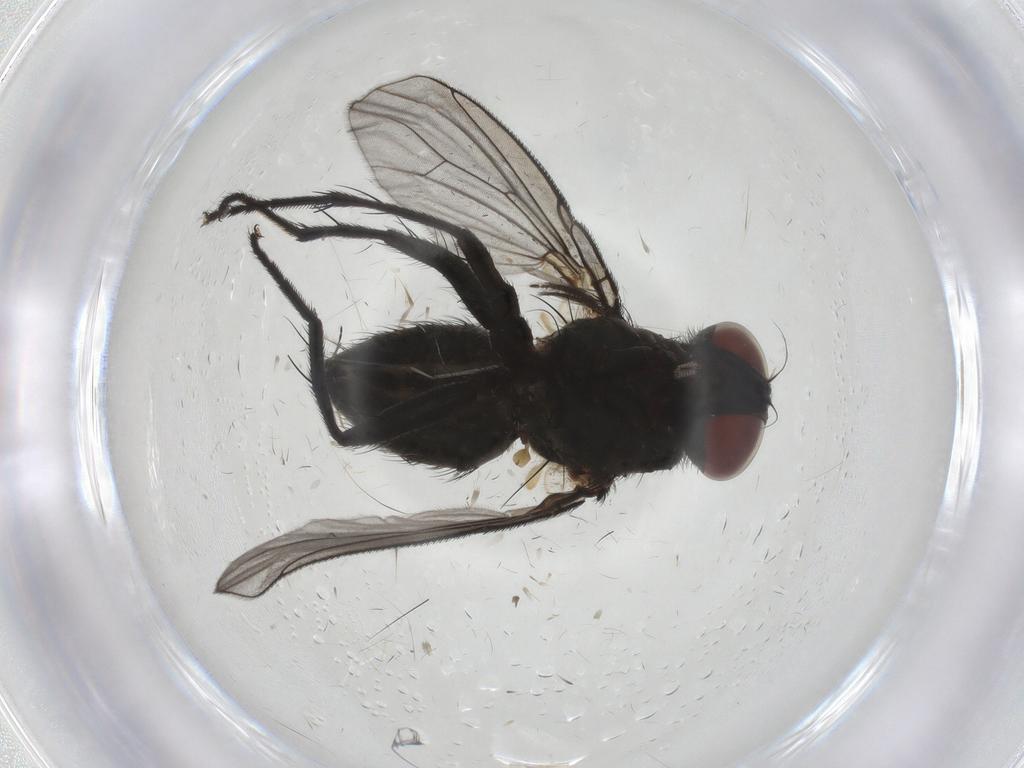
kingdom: Animalia
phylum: Arthropoda
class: Insecta
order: Diptera
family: Muscidae
